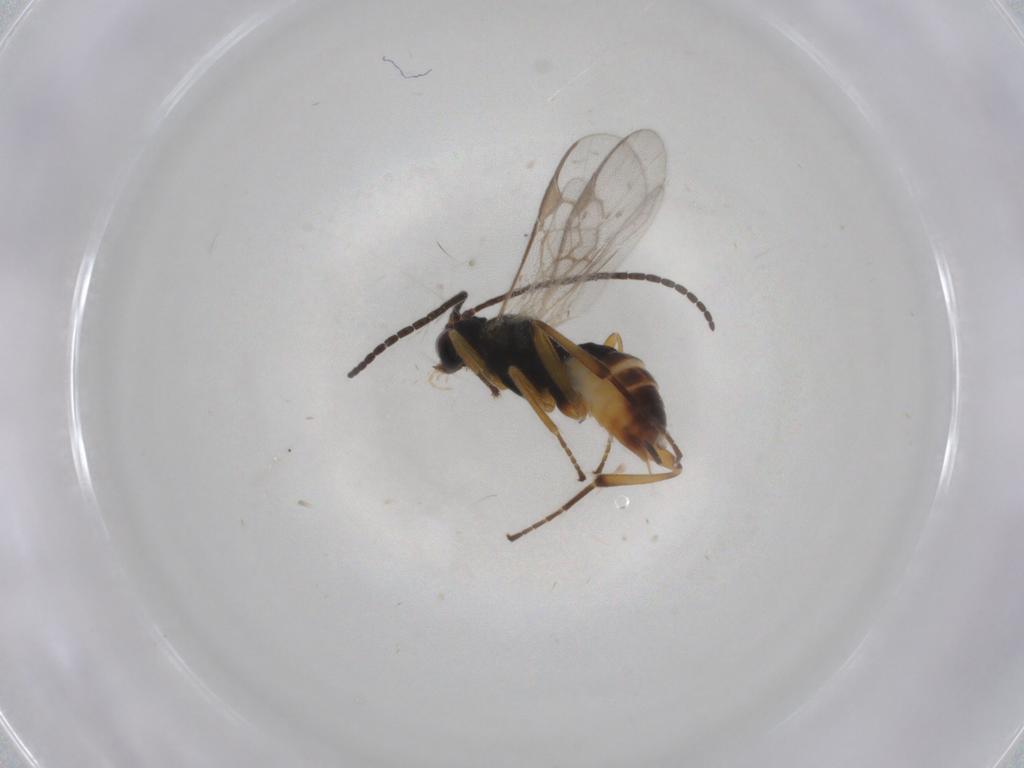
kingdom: Animalia
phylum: Arthropoda
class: Insecta
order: Hymenoptera
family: Braconidae
